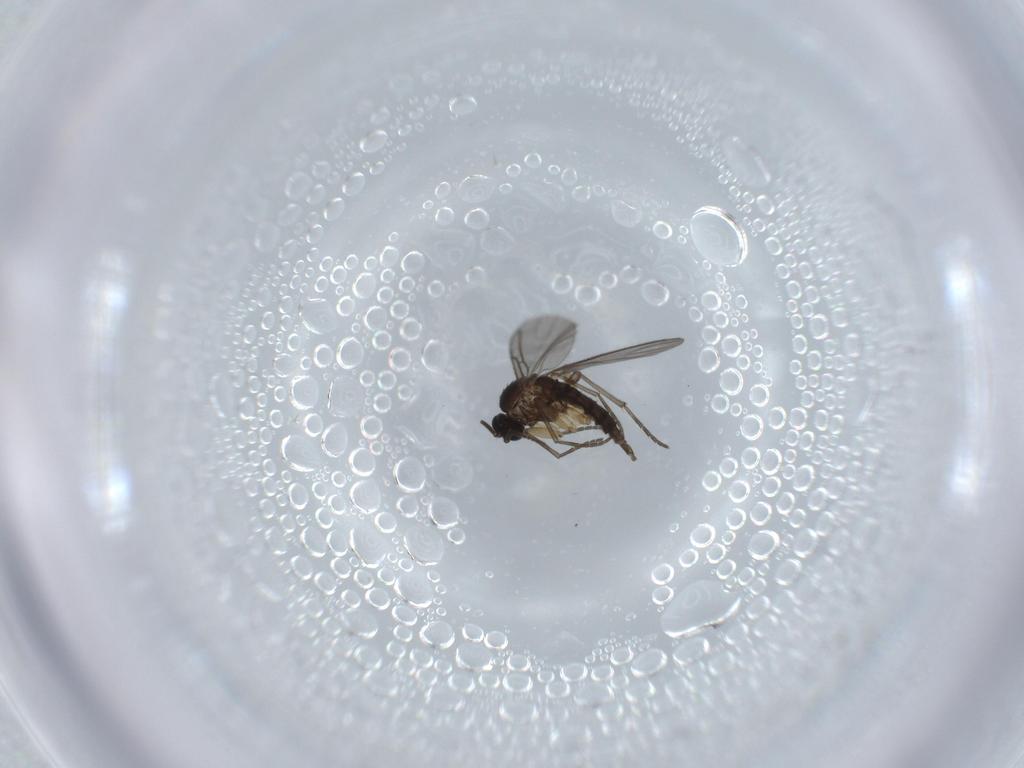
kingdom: Animalia
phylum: Arthropoda
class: Insecta
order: Diptera
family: Sciaridae
